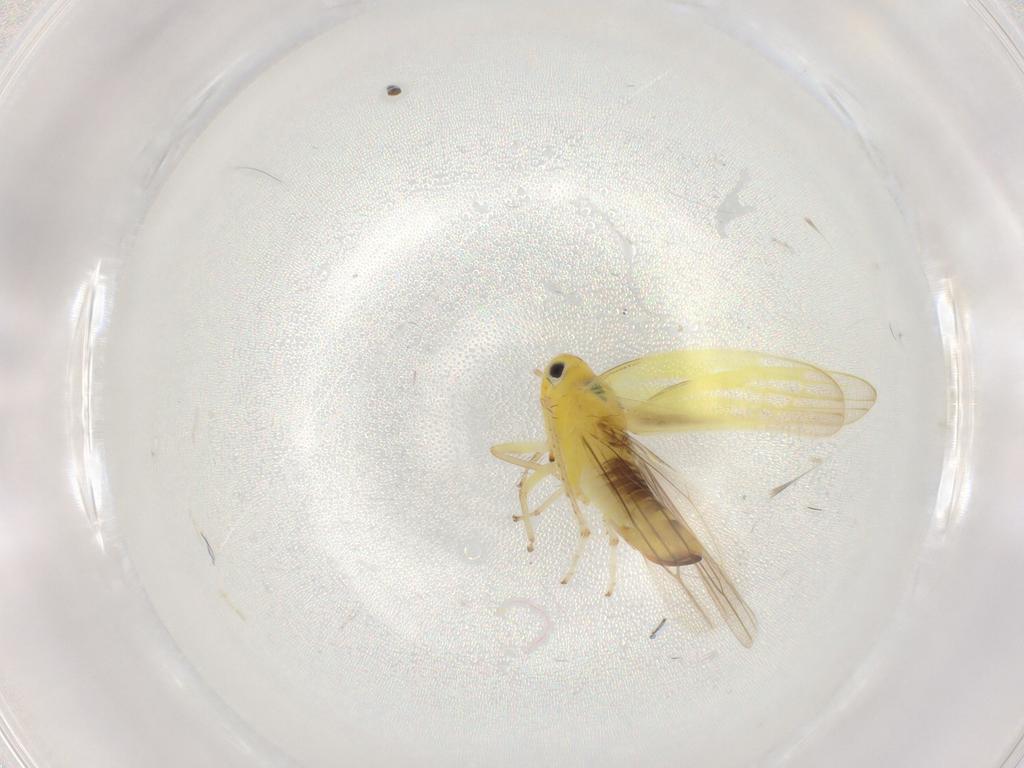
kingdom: Animalia
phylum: Arthropoda
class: Insecta
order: Hemiptera
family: Cicadellidae
